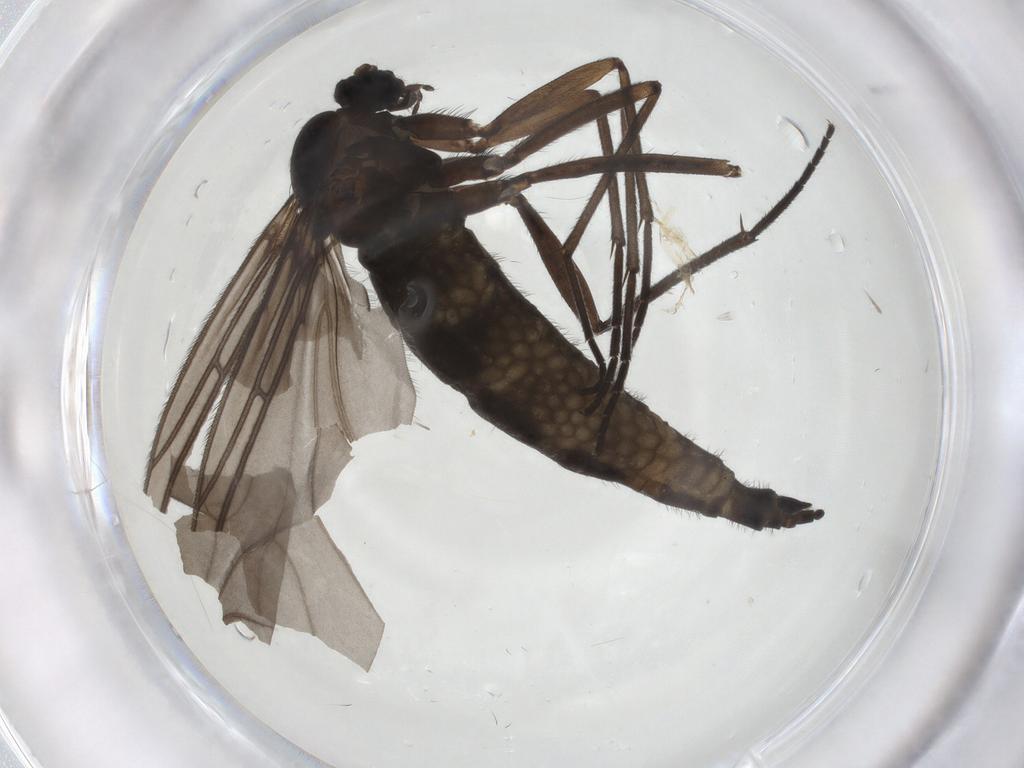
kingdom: Animalia
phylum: Arthropoda
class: Insecta
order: Diptera
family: Sciaridae
